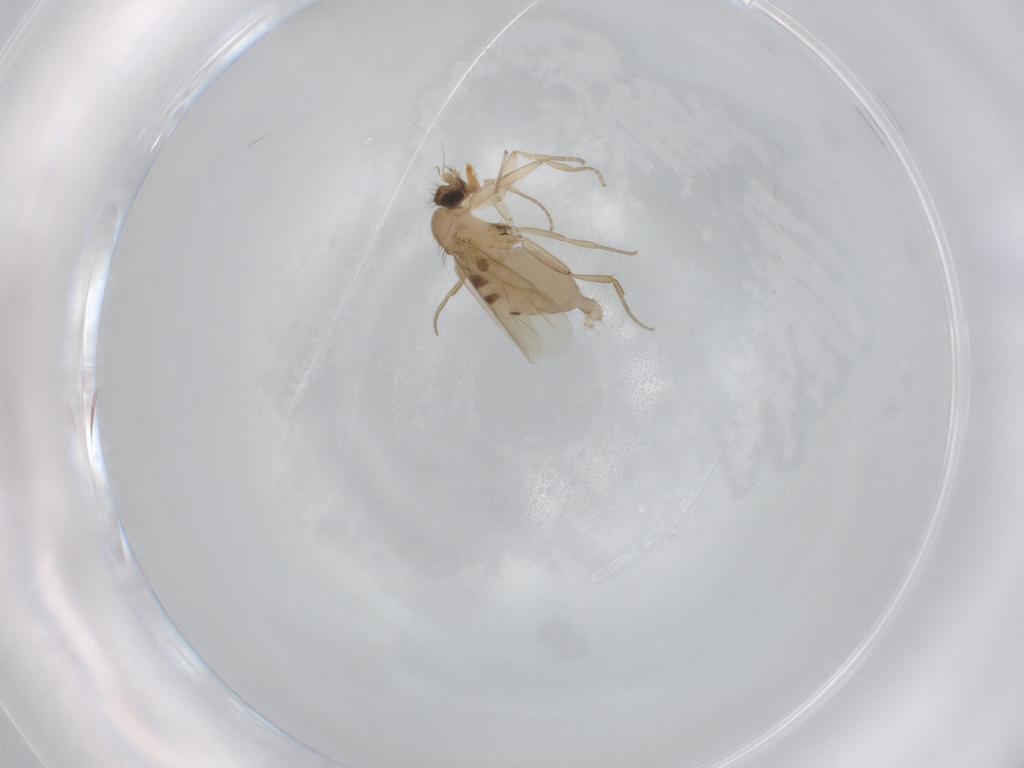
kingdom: Animalia
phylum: Arthropoda
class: Insecta
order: Diptera
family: Phoridae
